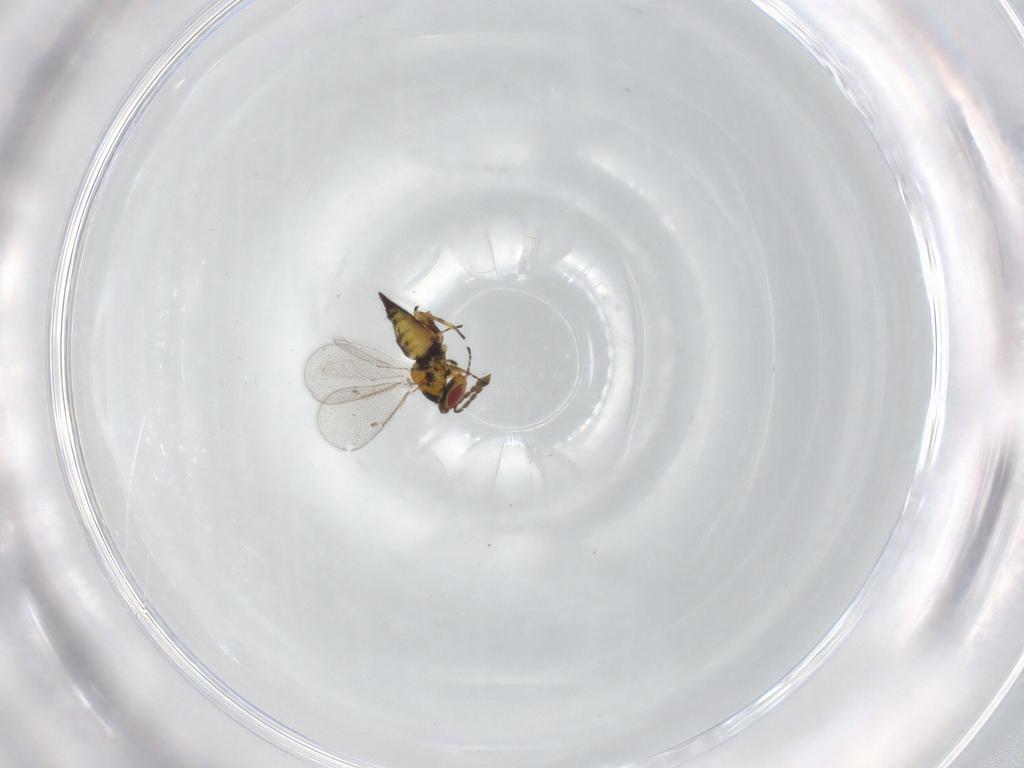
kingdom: Animalia
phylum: Arthropoda
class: Insecta
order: Hymenoptera
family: Eulophidae
